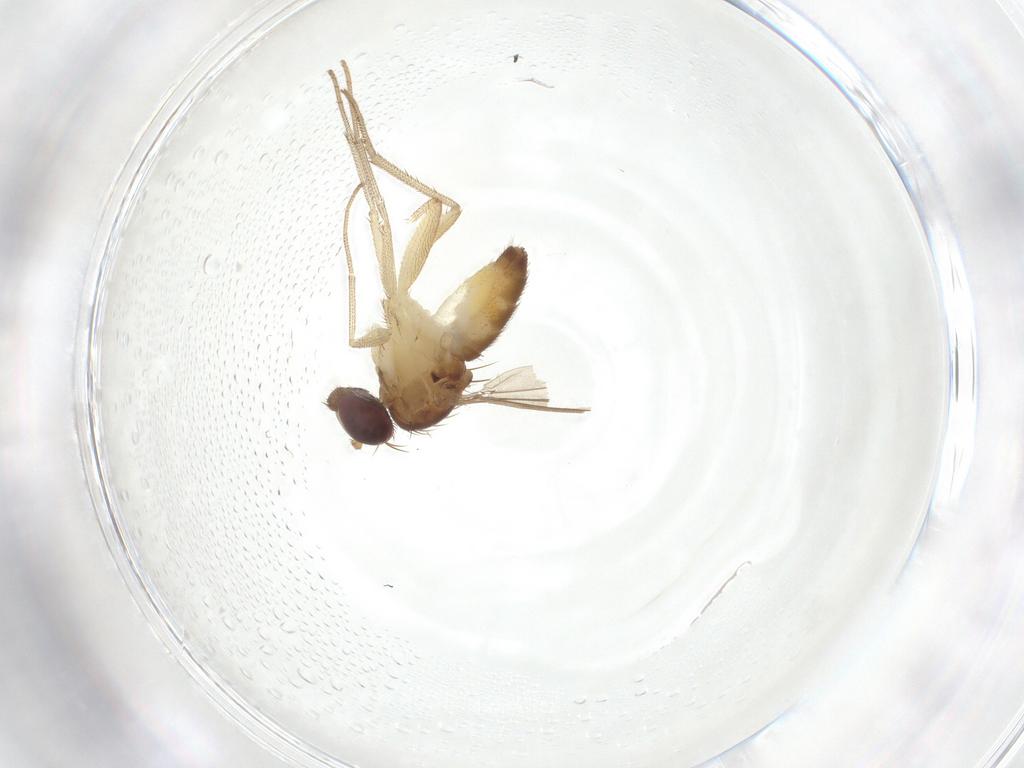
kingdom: Animalia
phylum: Arthropoda
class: Insecta
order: Diptera
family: Dolichopodidae
